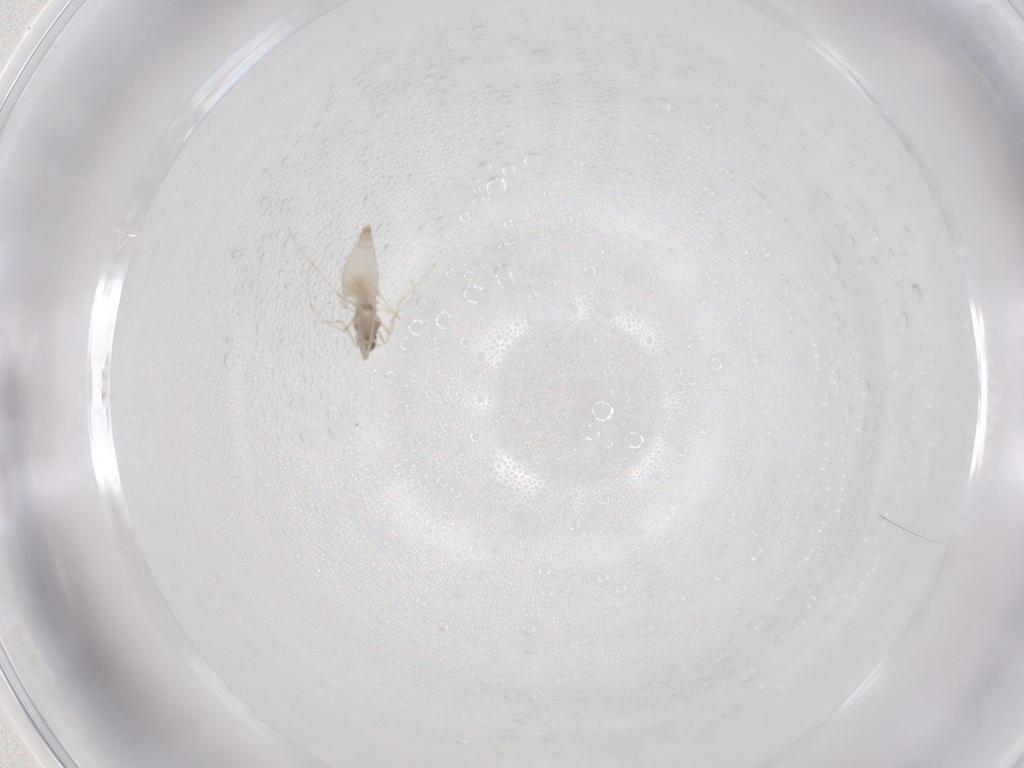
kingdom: Animalia
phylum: Arthropoda
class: Insecta
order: Diptera
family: Cecidomyiidae
